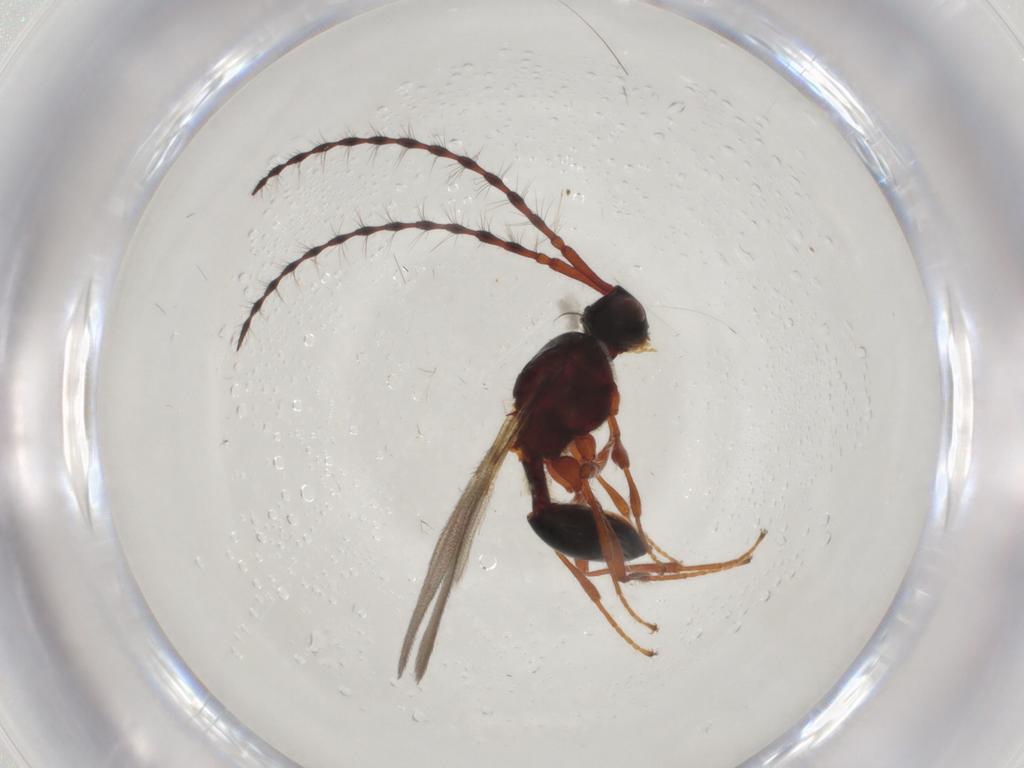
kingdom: Animalia
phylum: Arthropoda
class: Insecta
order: Hymenoptera
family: Diapriidae
